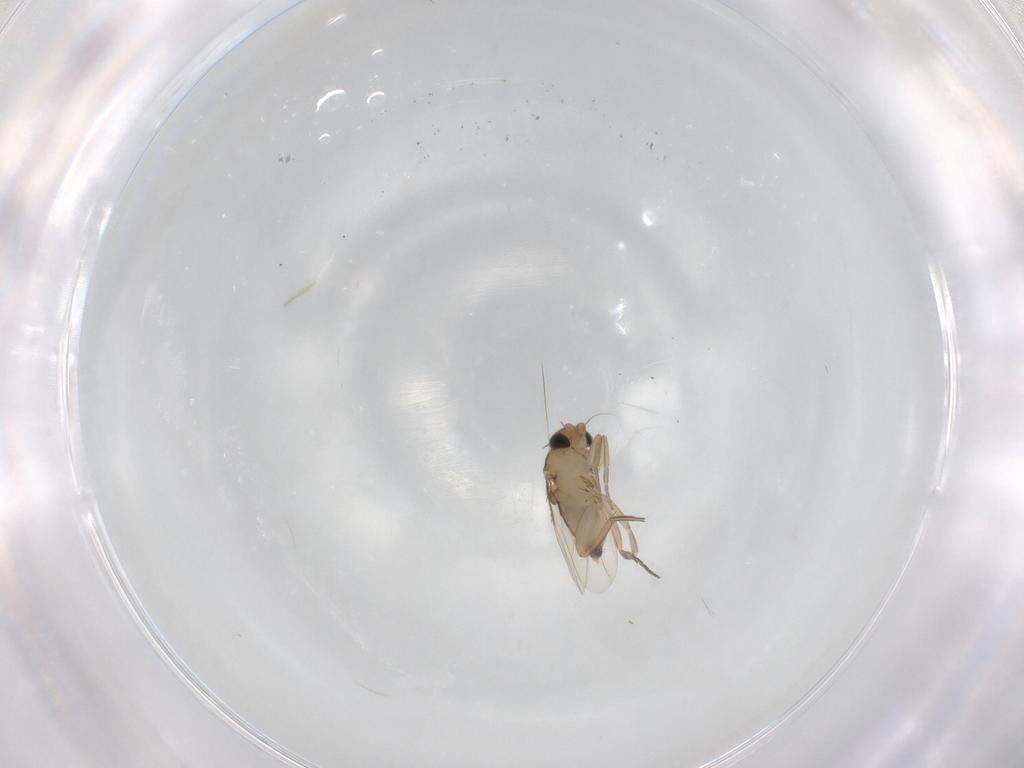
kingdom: Animalia
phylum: Arthropoda
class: Insecta
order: Diptera
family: Phoridae
